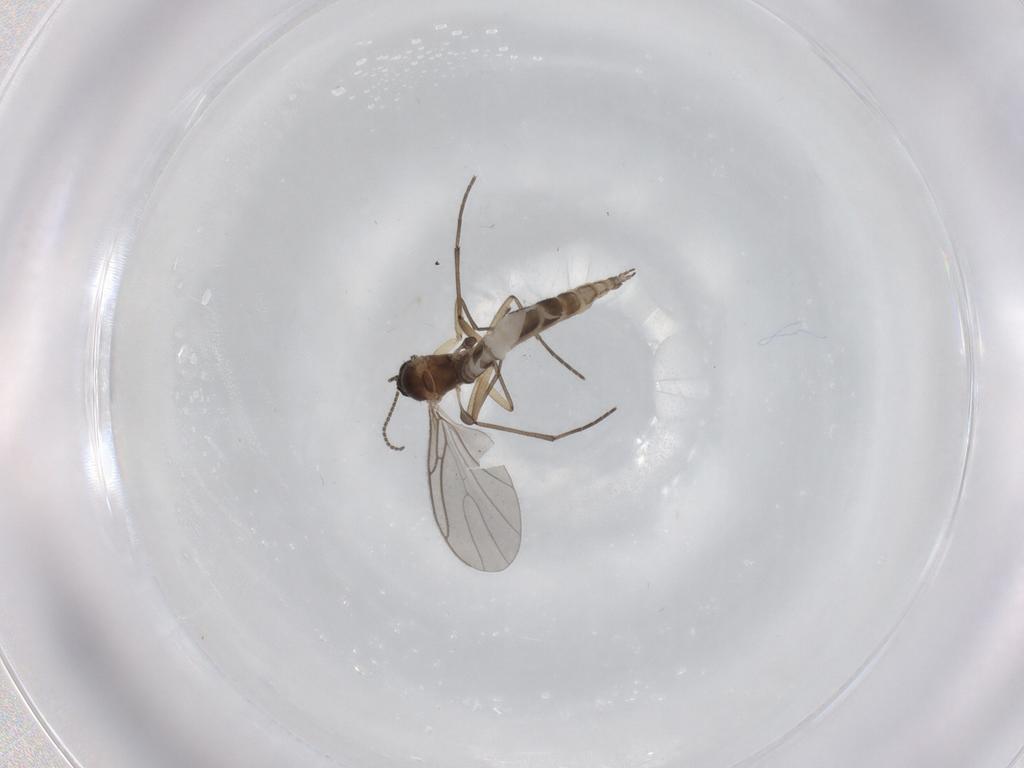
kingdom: Animalia
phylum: Arthropoda
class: Insecta
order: Diptera
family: Sciaridae
